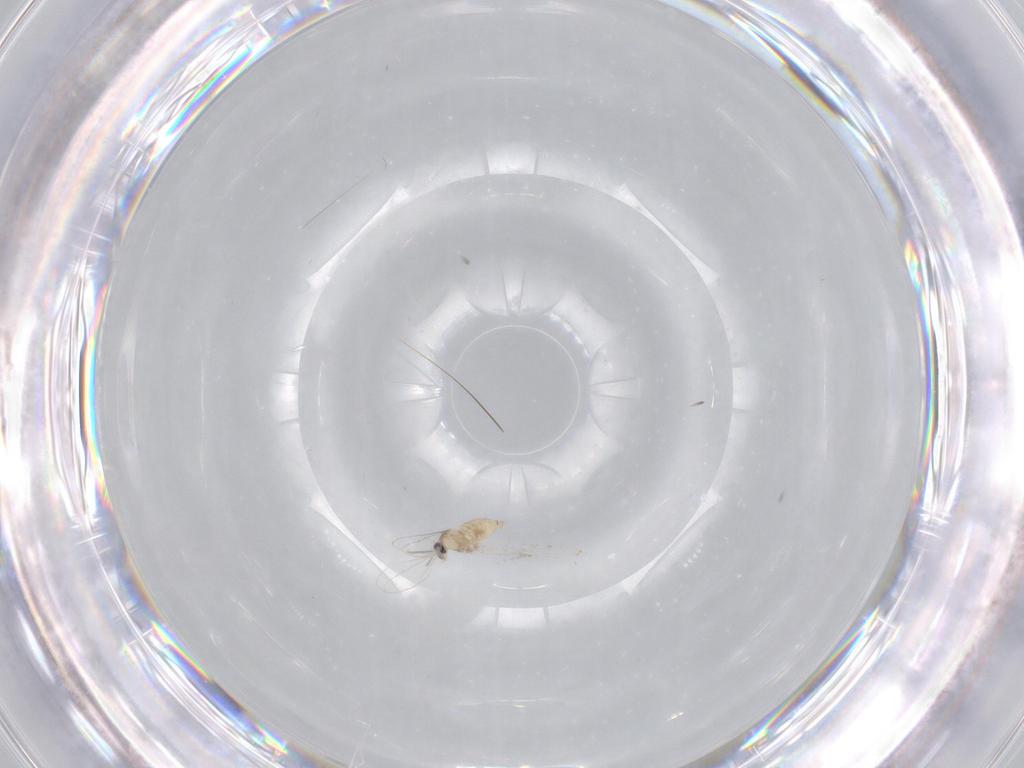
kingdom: Animalia
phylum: Arthropoda
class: Insecta
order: Diptera
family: Cecidomyiidae
